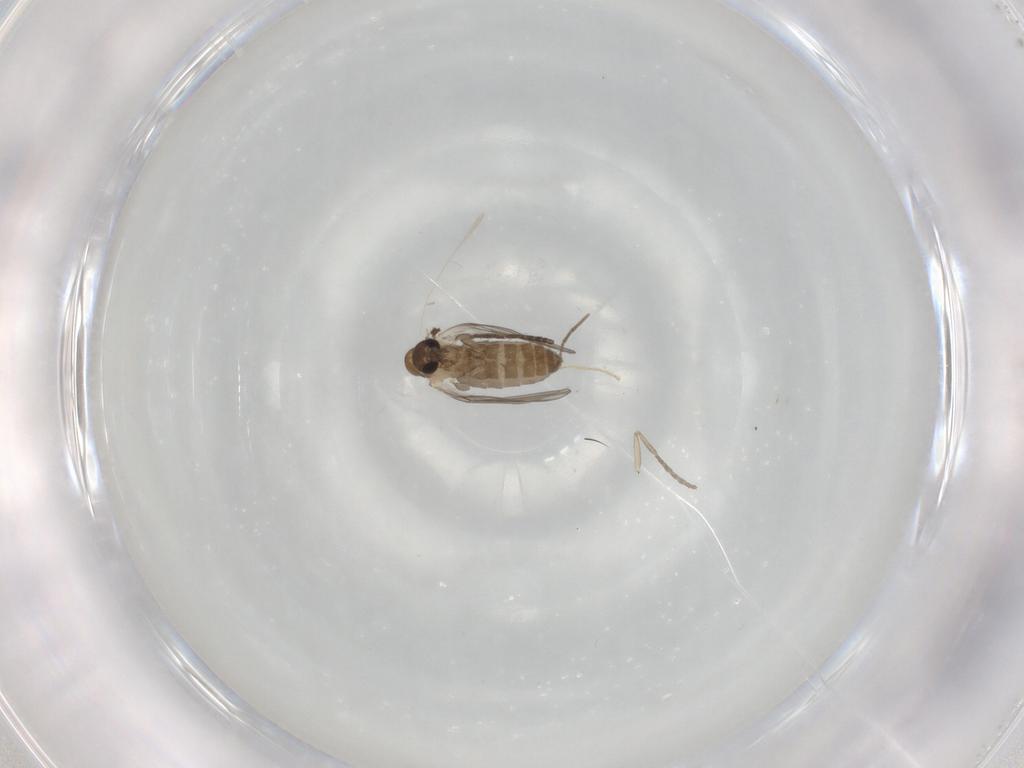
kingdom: Animalia
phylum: Arthropoda
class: Insecta
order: Diptera
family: Psychodidae
